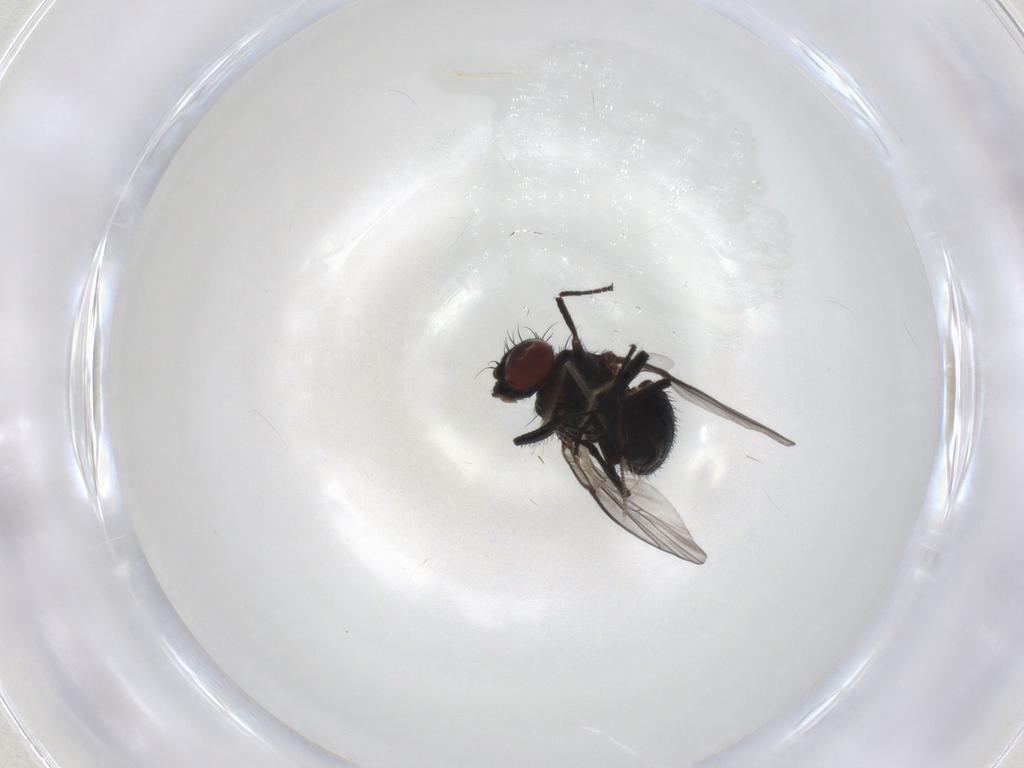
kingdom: Animalia
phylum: Arthropoda
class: Insecta
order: Diptera
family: Agromyzidae
